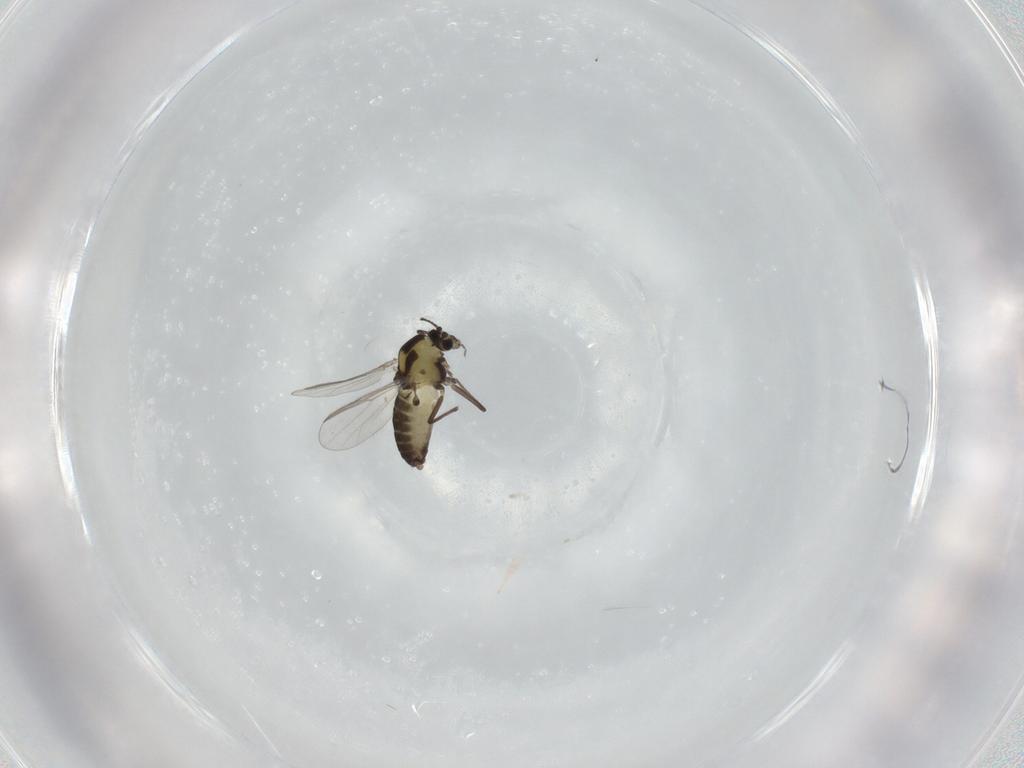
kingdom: Animalia
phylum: Arthropoda
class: Insecta
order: Diptera
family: Chironomidae
